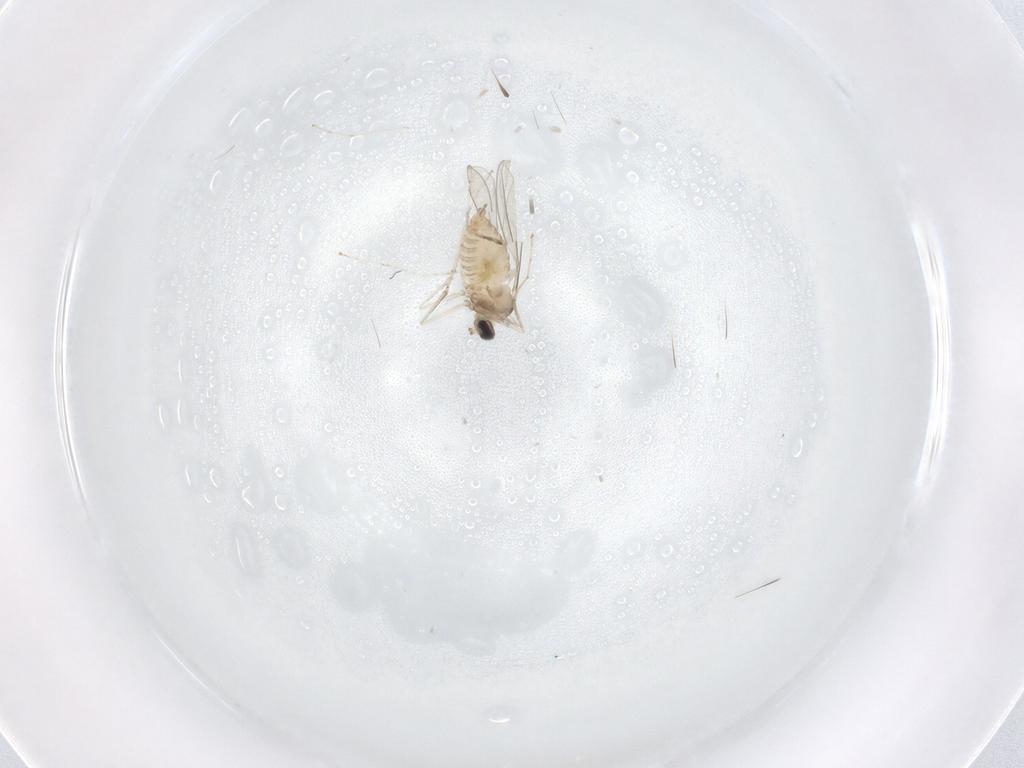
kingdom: Animalia
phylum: Arthropoda
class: Insecta
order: Diptera
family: Cecidomyiidae
